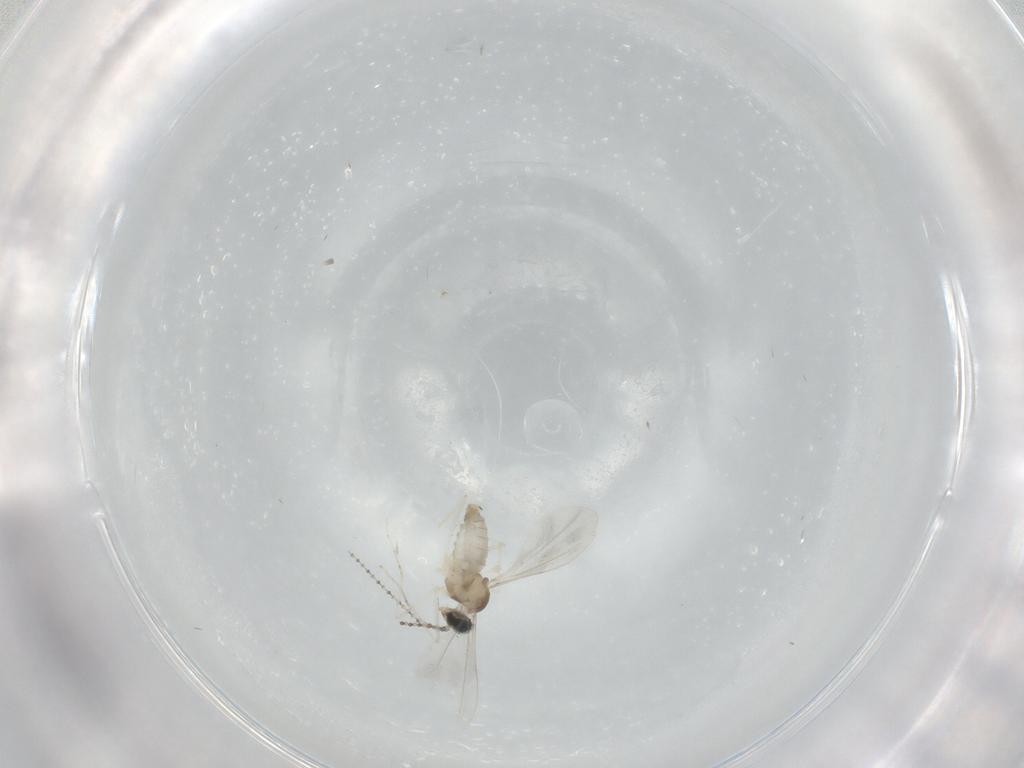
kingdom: Animalia
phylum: Arthropoda
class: Insecta
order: Diptera
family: Cecidomyiidae
